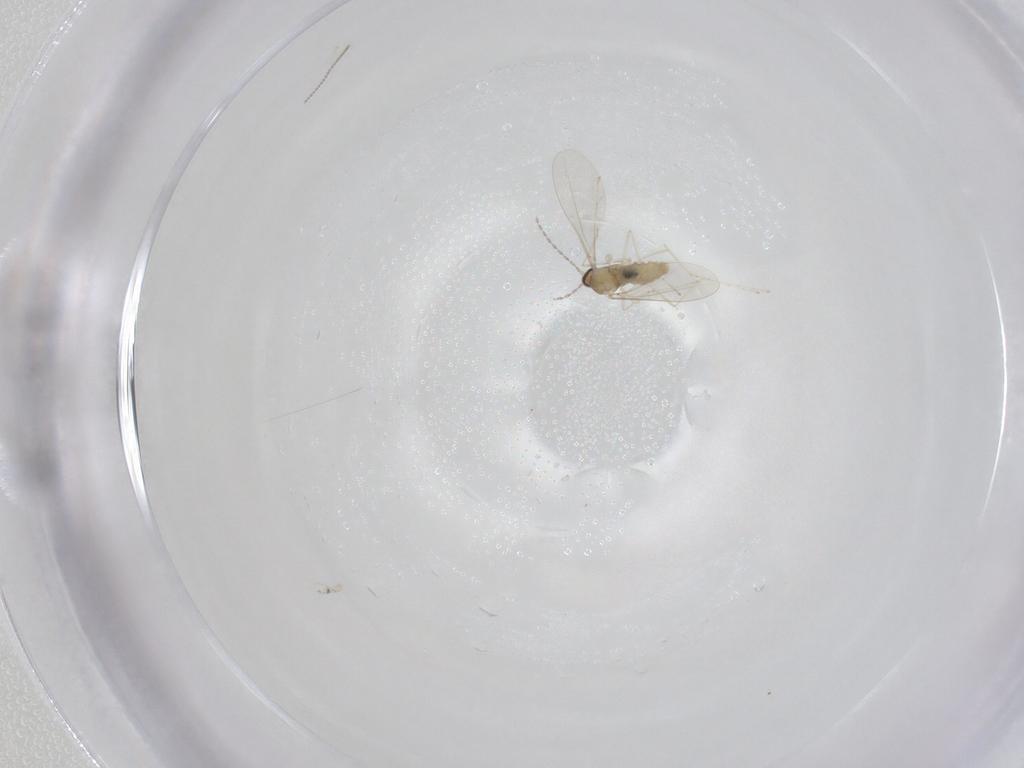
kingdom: Animalia
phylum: Arthropoda
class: Insecta
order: Diptera
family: Cecidomyiidae
